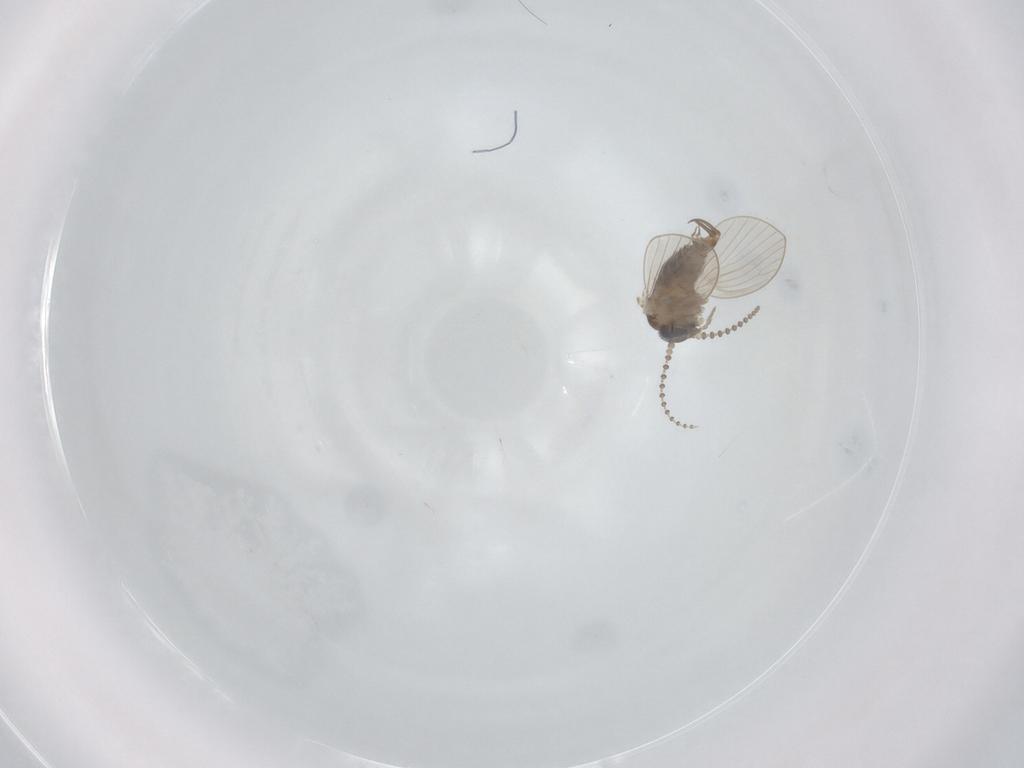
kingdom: Animalia
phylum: Arthropoda
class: Insecta
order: Diptera
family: Psychodidae
